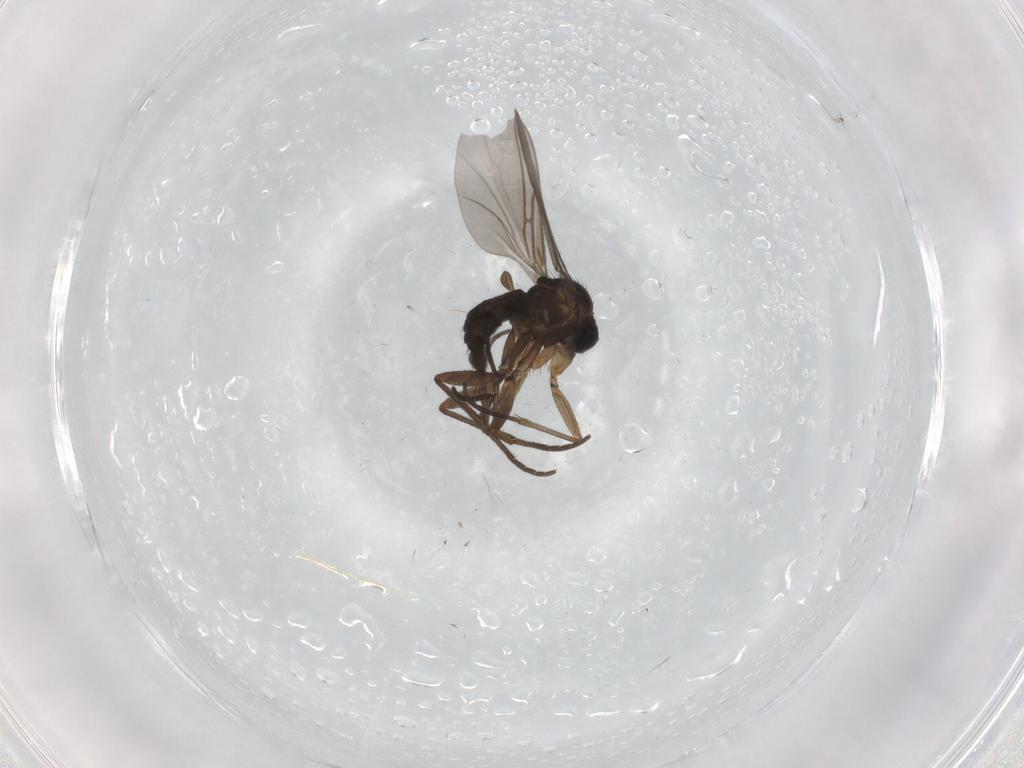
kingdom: Animalia
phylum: Arthropoda
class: Insecta
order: Diptera
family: Sciaridae
